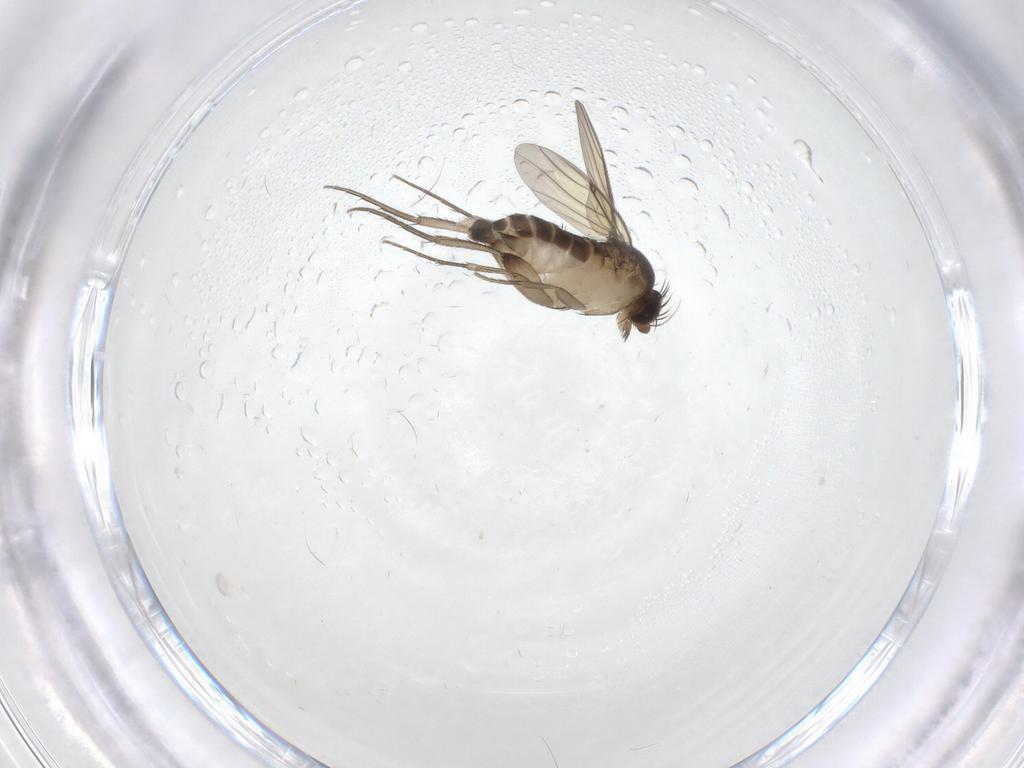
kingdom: Animalia
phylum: Arthropoda
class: Insecta
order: Diptera
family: Phoridae
